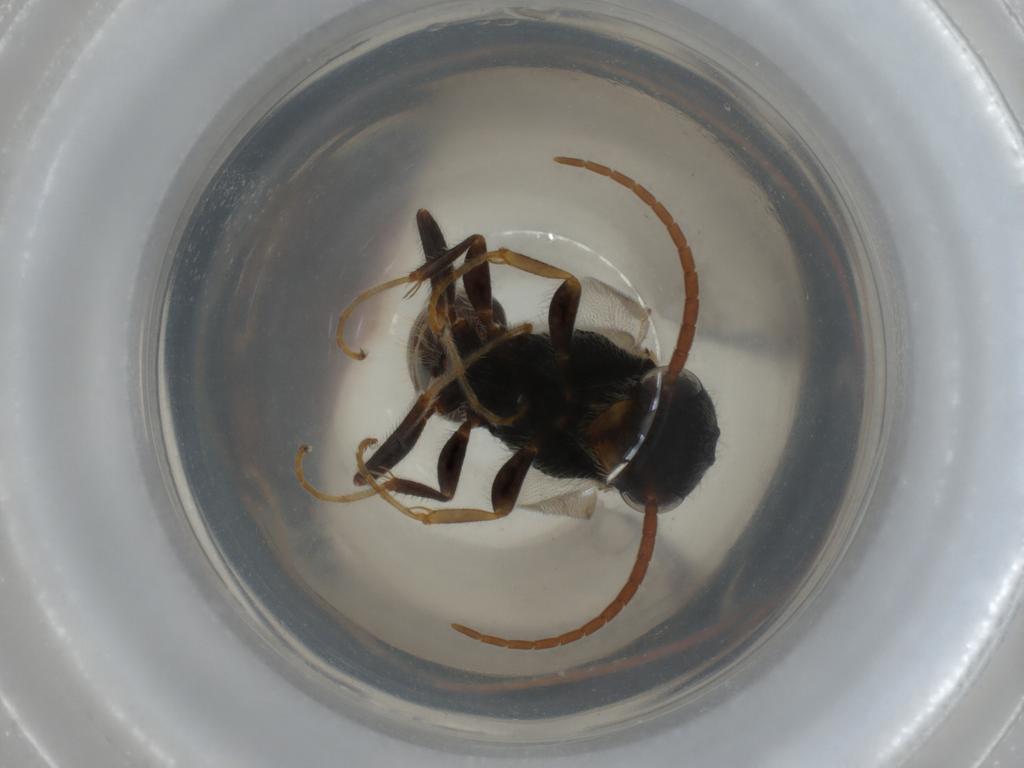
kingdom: Animalia
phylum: Arthropoda
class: Insecta
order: Hymenoptera
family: Bethylidae
